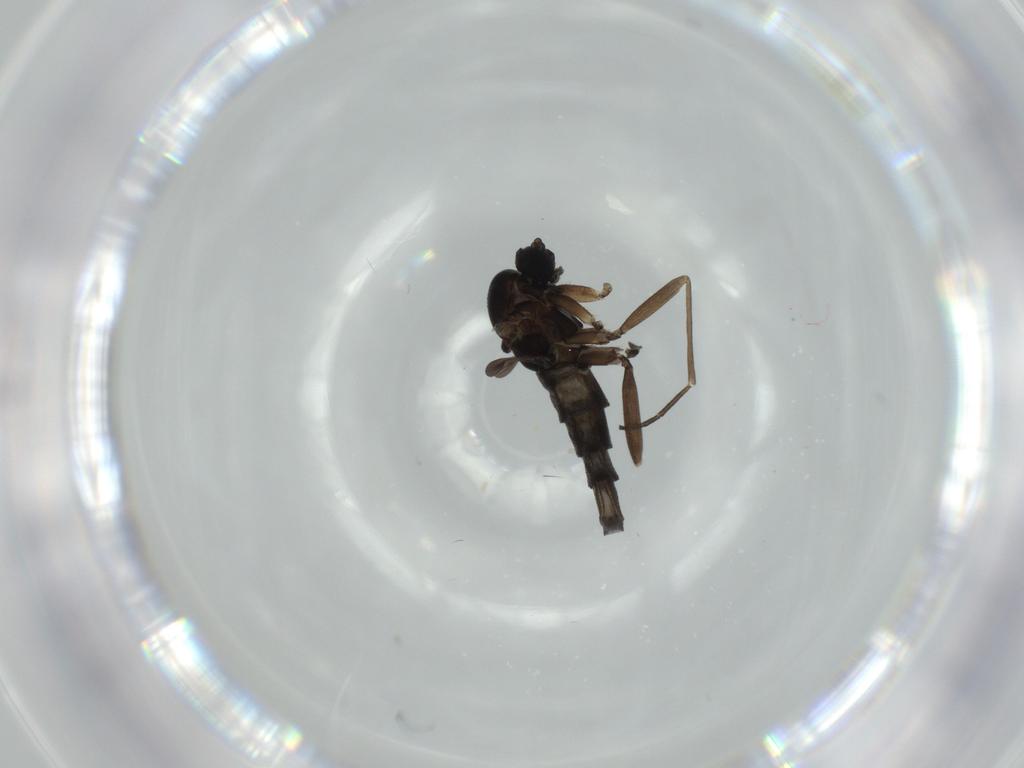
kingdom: Animalia
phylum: Arthropoda
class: Insecta
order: Diptera
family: Sciaridae
